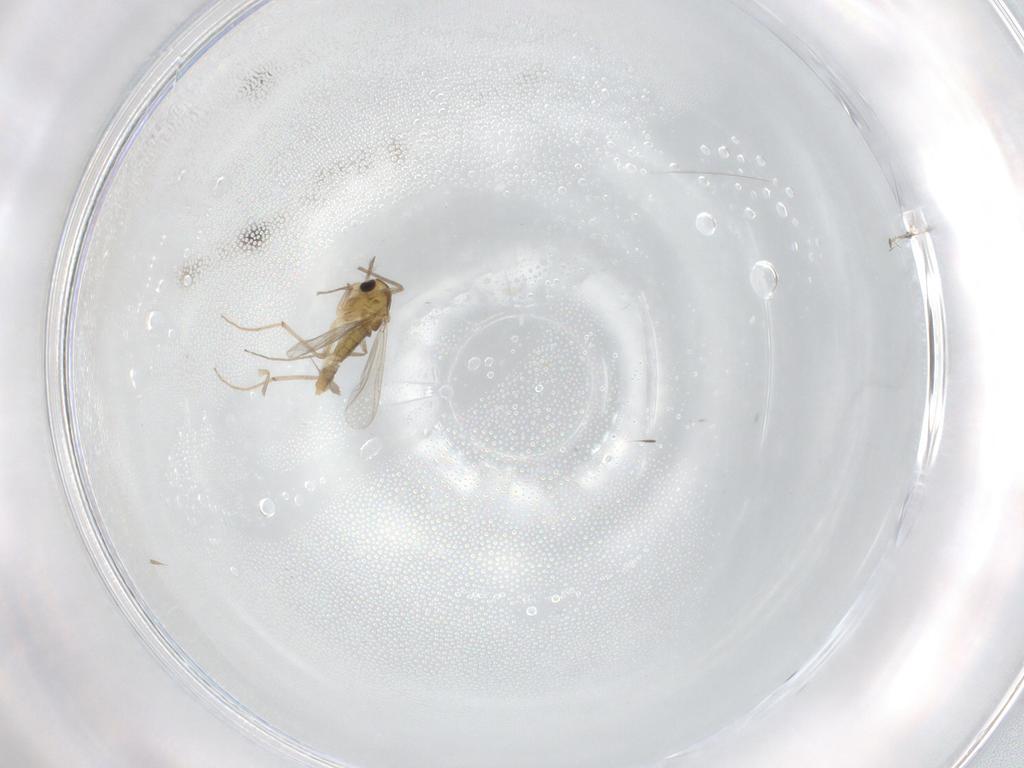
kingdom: Animalia
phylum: Arthropoda
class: Insecta
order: Diptera
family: Chironomidae
